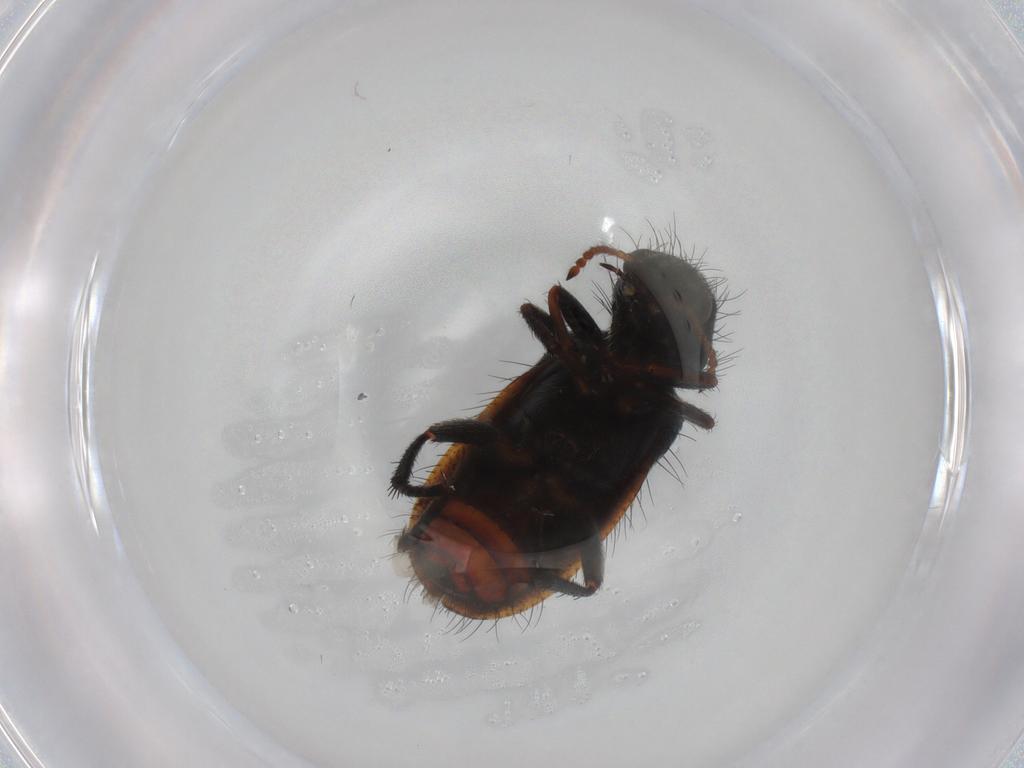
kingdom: Animalia
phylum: Arthropoda
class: Insecta
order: Coleoptera
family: Melyridae
